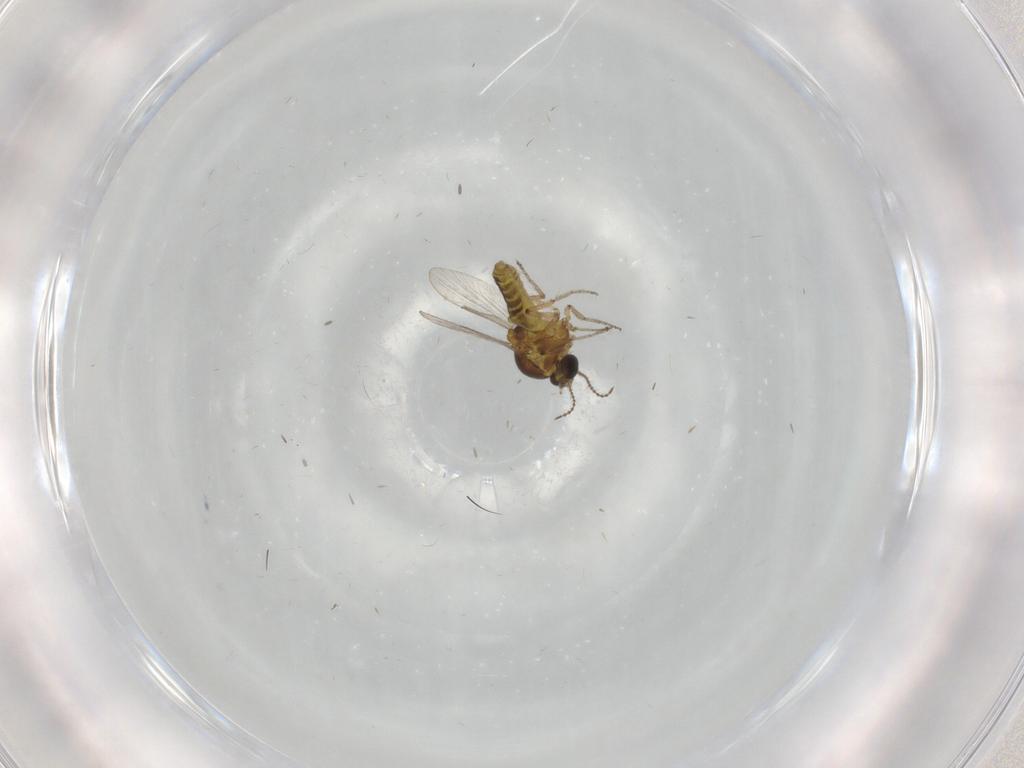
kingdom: Animalia
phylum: Arthropoda
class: Insecta
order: Diptera
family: Dolichopodidae
